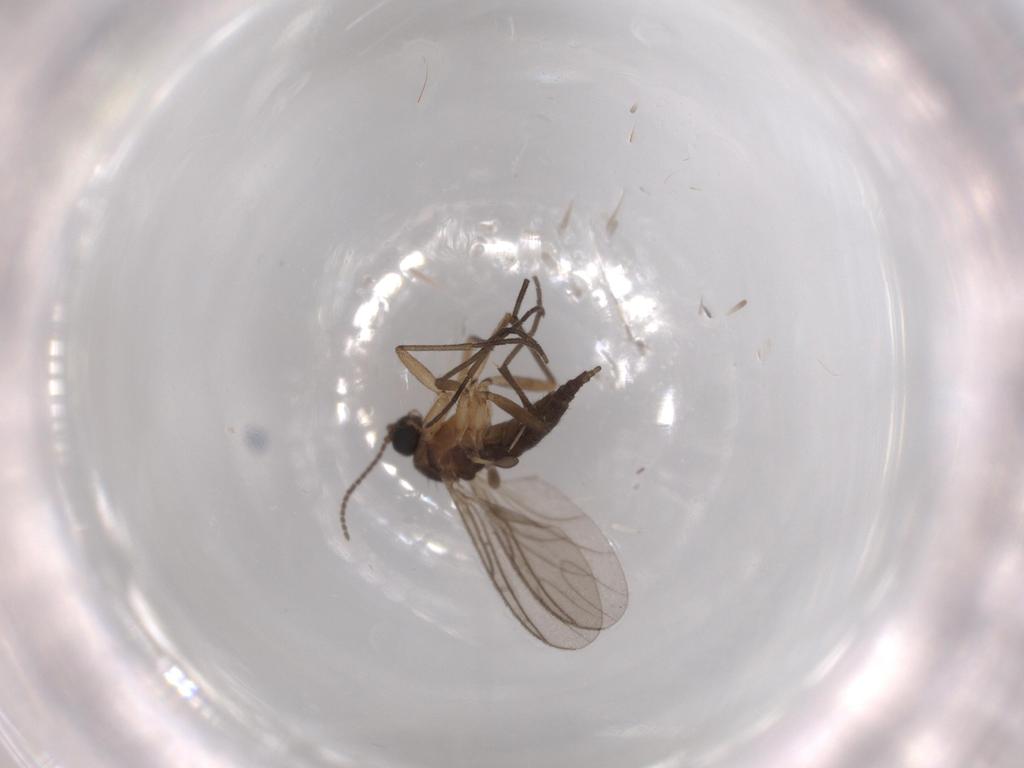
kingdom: Animalia
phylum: Arthropoda
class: Insecta
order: Diptera
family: Sciaridae
